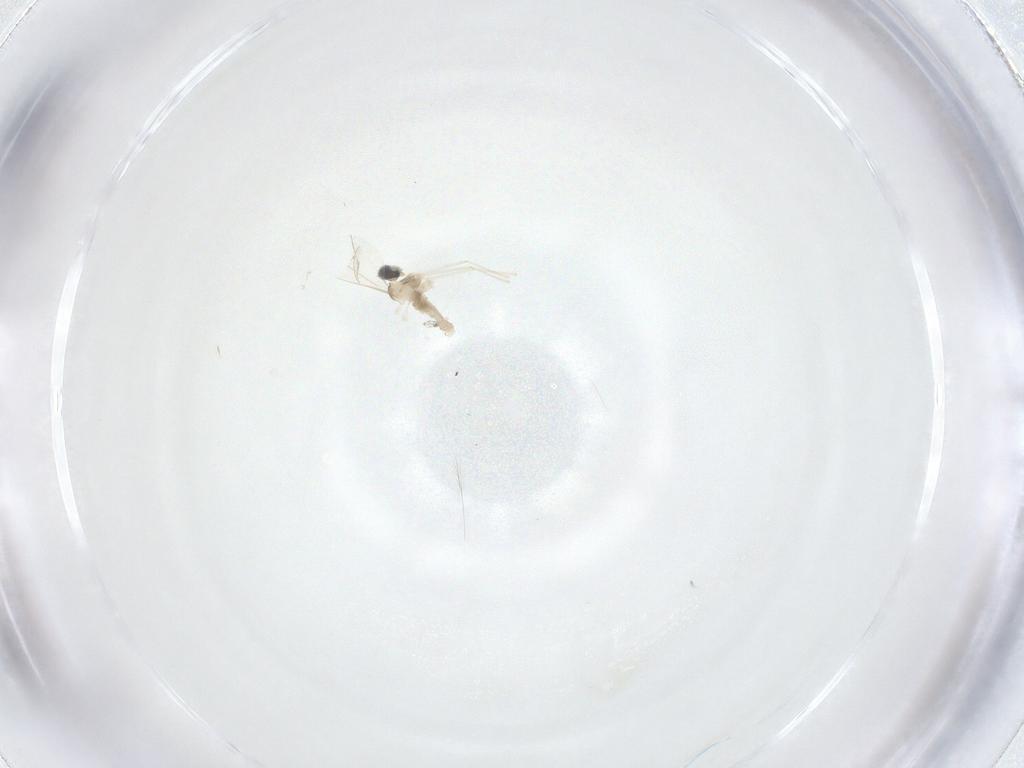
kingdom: Animalia
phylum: Arthropoda
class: Insecta
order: Diptera
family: Cecidomyiidae
